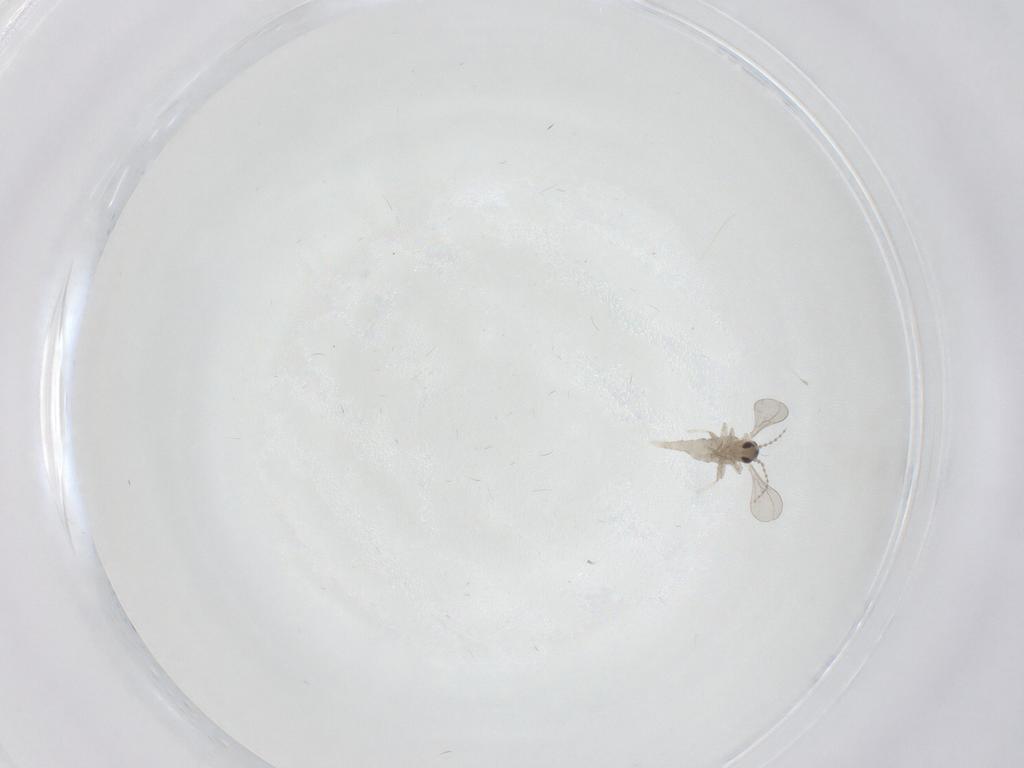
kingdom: Animalia
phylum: Arthropoda
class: Insecta
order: Diptera
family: Cecidomyiidae
